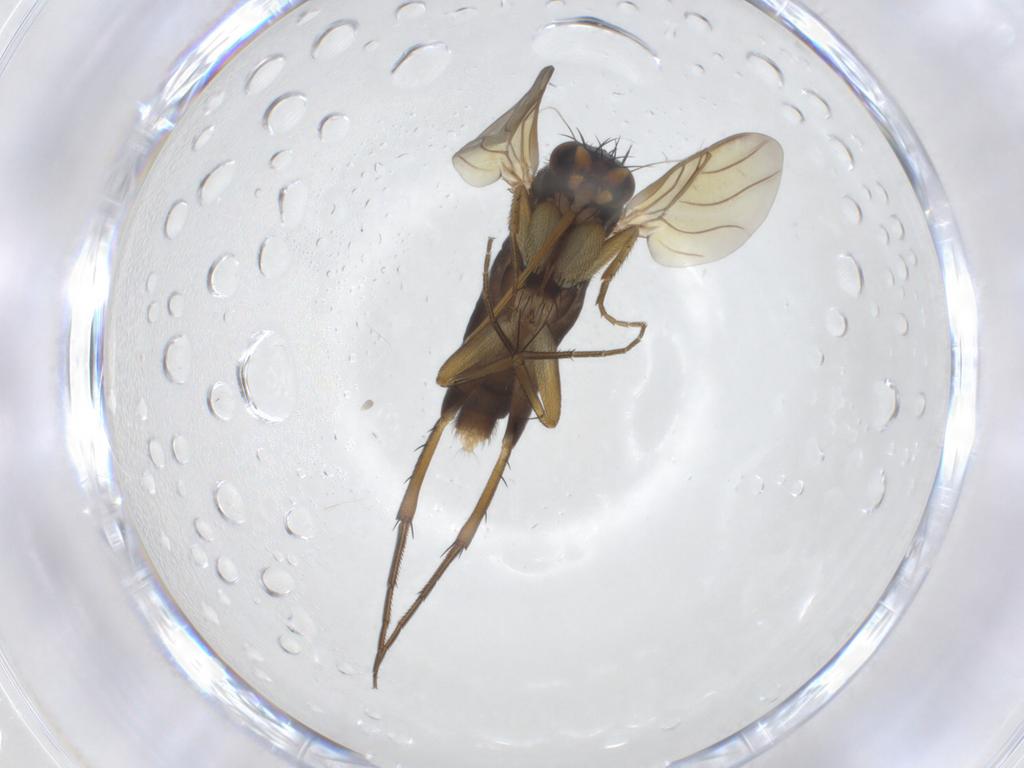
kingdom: Animalia
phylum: Arthropoda
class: Insecta
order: Diptera
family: Phoridae
